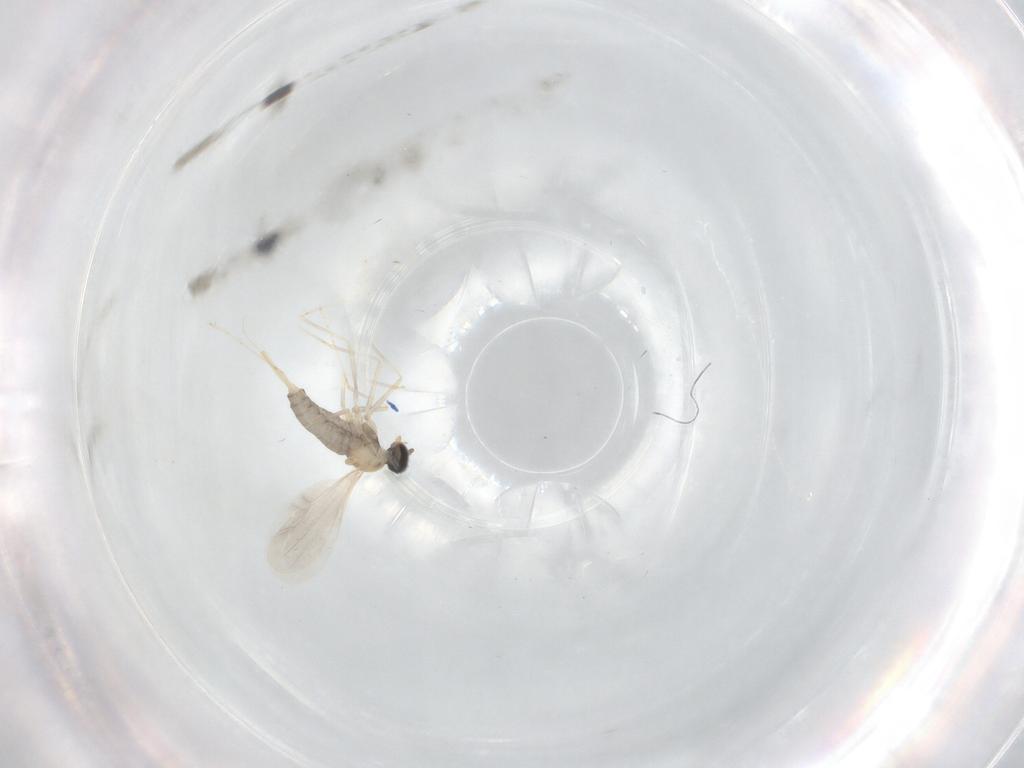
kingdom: Animalia
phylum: Arthropoda
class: Insecta
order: Diptera
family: Cecidomyiidae
